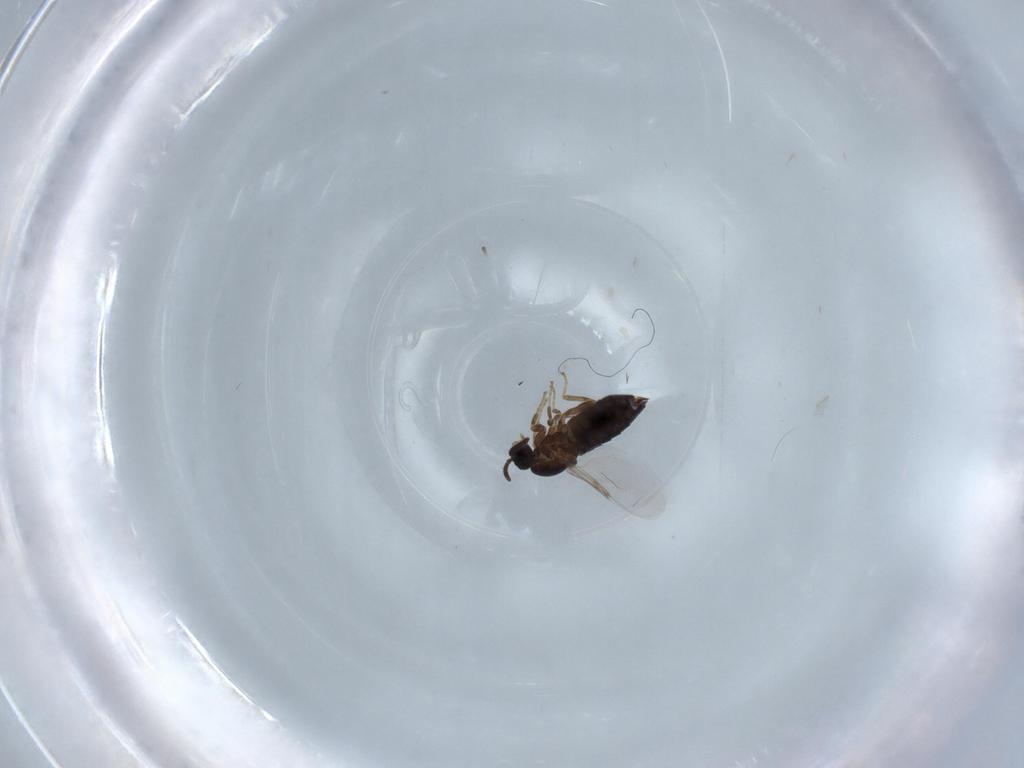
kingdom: Animalia
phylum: Arthropoda
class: Insecta
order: Diptera
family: Scatopsidae
